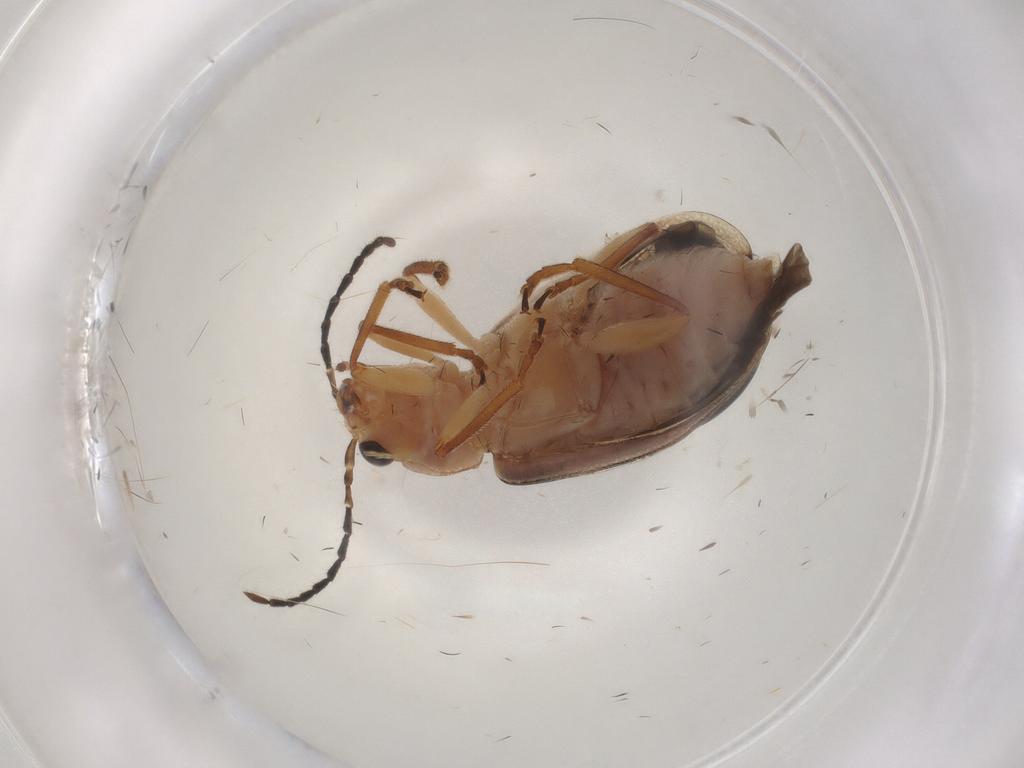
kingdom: Animalia
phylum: Arthropoda
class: Insecta
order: Coleoptera
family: Chrysomelidae
